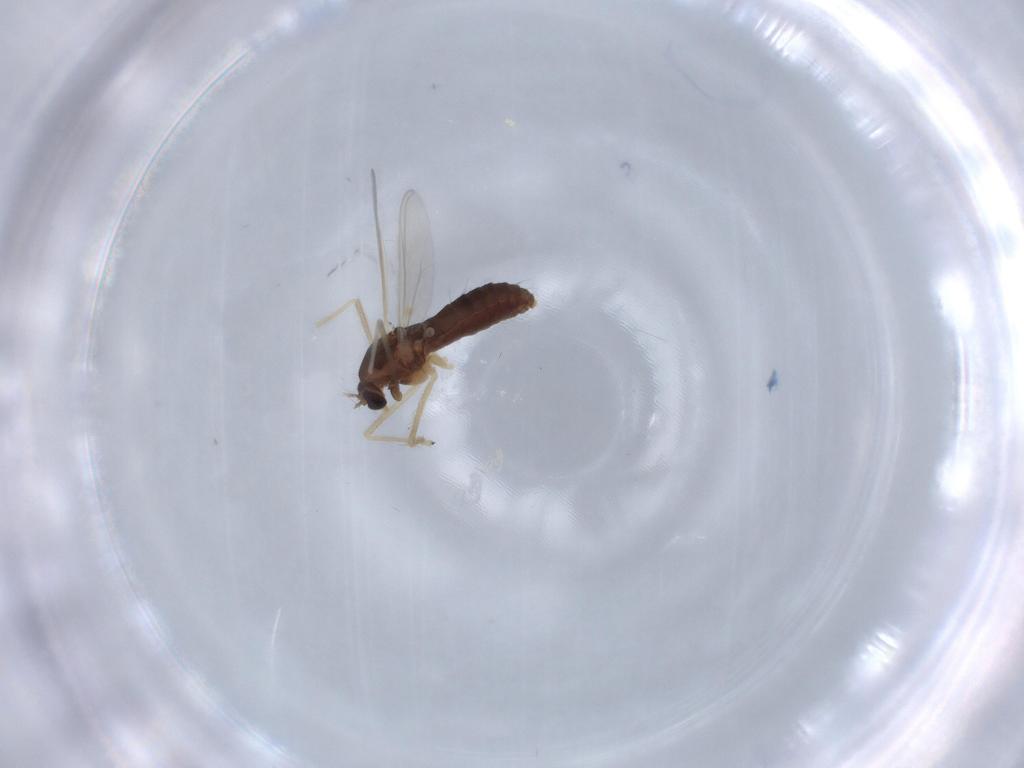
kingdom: Animalia
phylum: Arthropoda
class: Insecta
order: Diptera
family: Chironomidae
